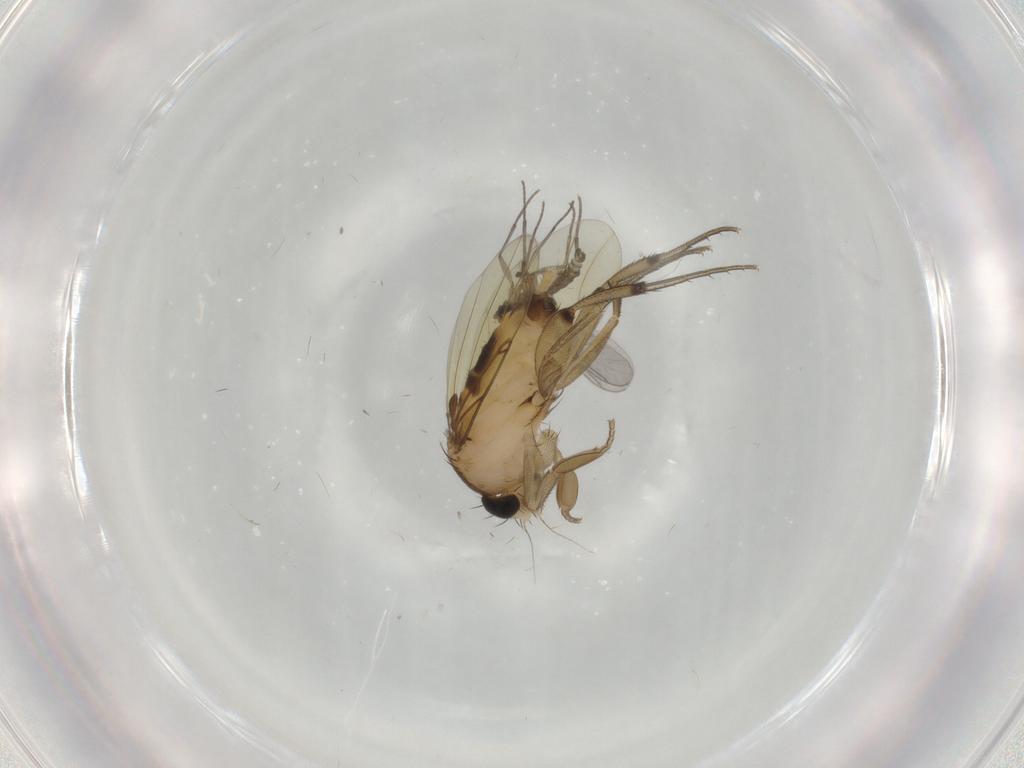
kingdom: Animalia
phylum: Arthropoda
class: Insecta
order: Diptera
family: Phoridae
